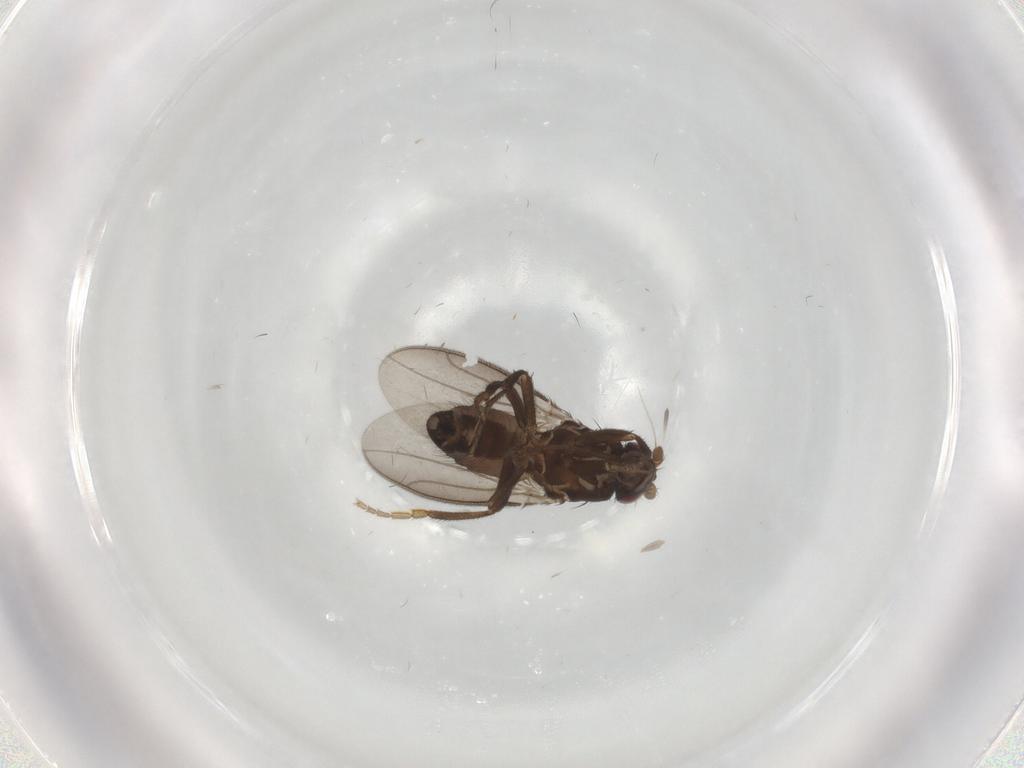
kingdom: Animalia
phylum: Arthropoda
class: Insecta
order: Diptera
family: Sphaeroceridae
